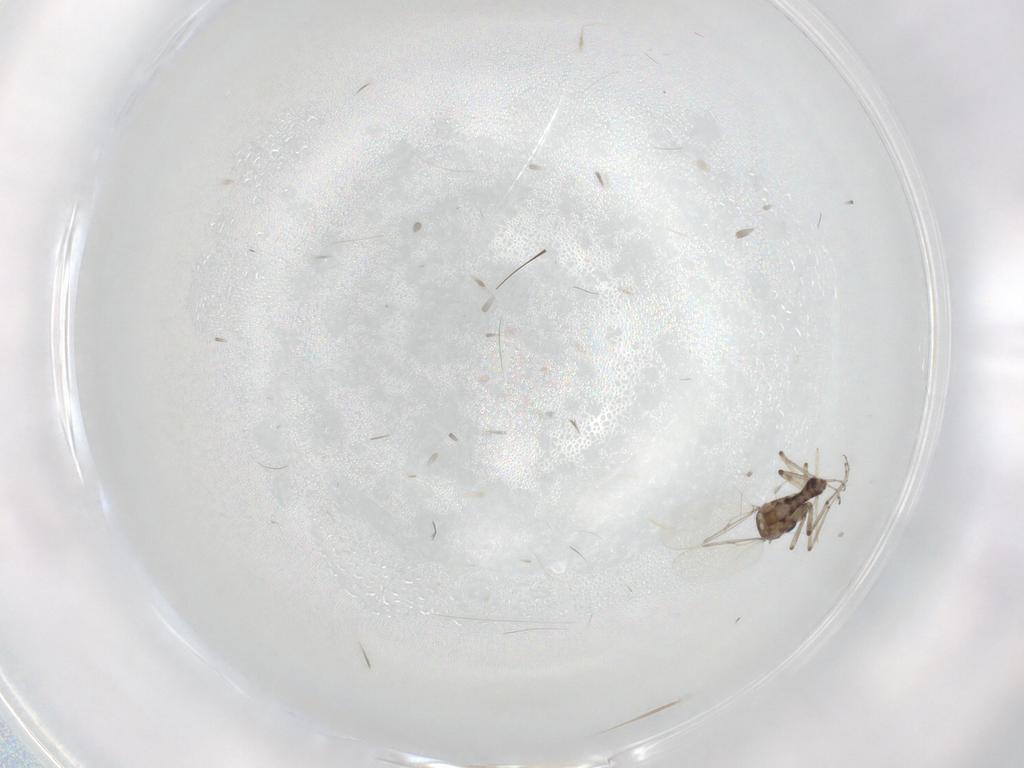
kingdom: Animalia
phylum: Arthropoda
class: Insecta
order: Diptera
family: Ceratopogonidae
